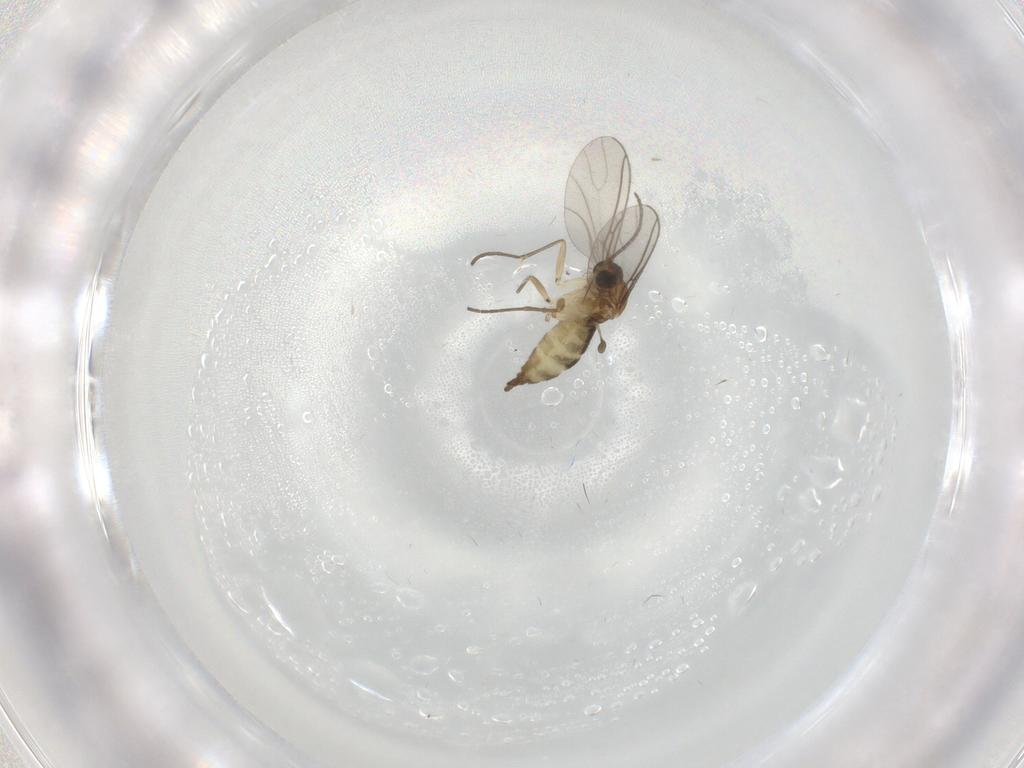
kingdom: Animalia
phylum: Arthropoda
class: Insecta
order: Diptera
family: Sciaridae
